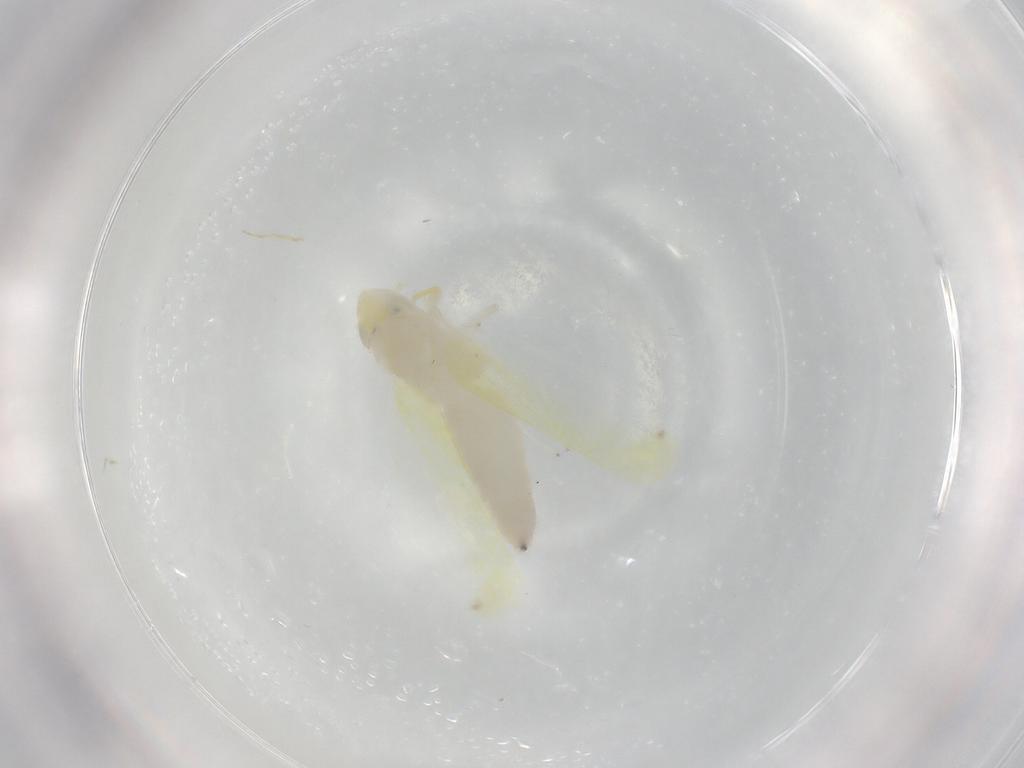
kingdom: Animalia
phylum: Arthropoda
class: Insecta
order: Hemiptera
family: Cicadellidae
